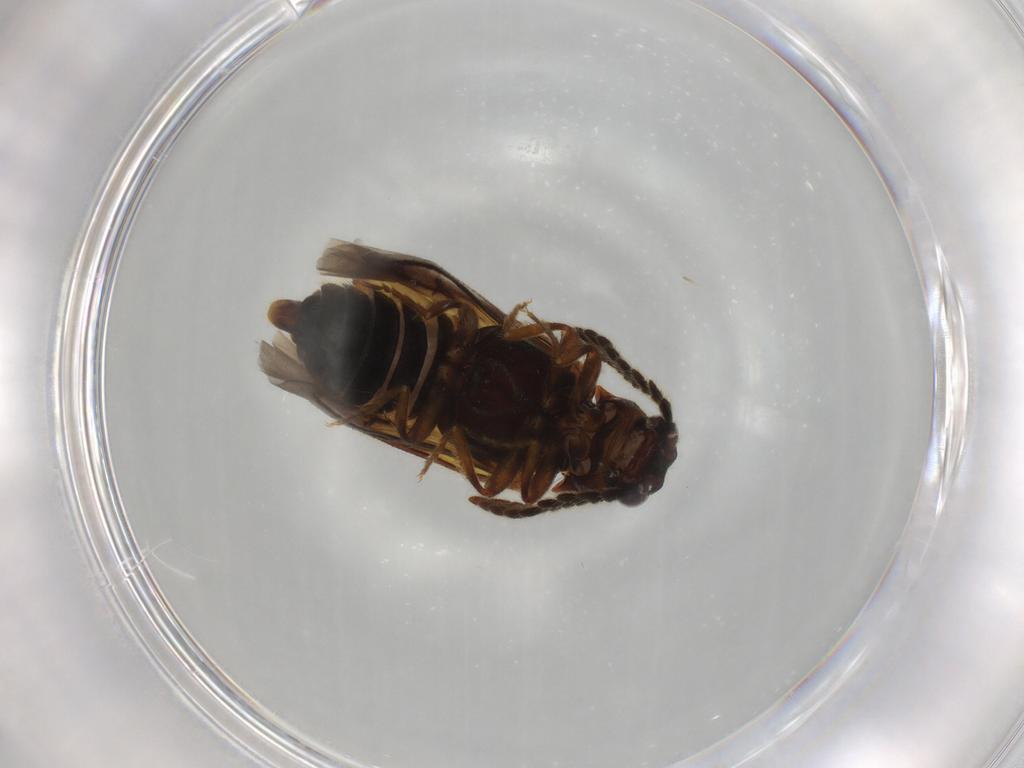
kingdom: Animalia
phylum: Arthropoda
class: Insecta
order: Coleoptera
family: Scarabaeidae
